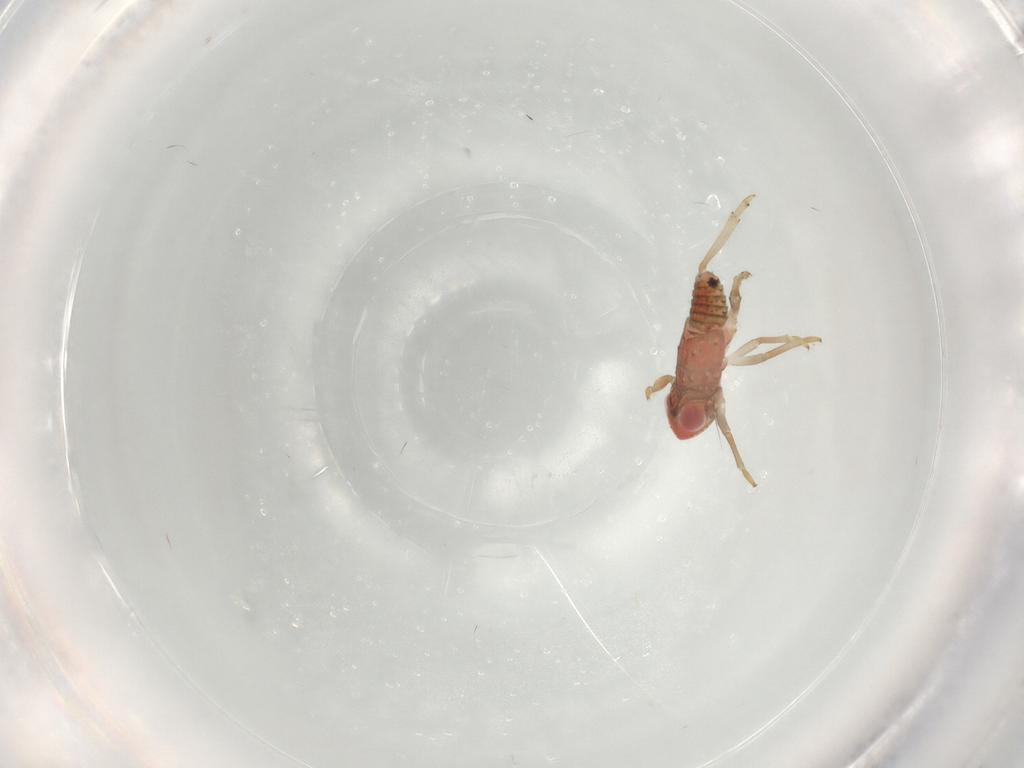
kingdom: Animalia
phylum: Arthropoda
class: Insecta
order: Hemiptera
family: Issidae
